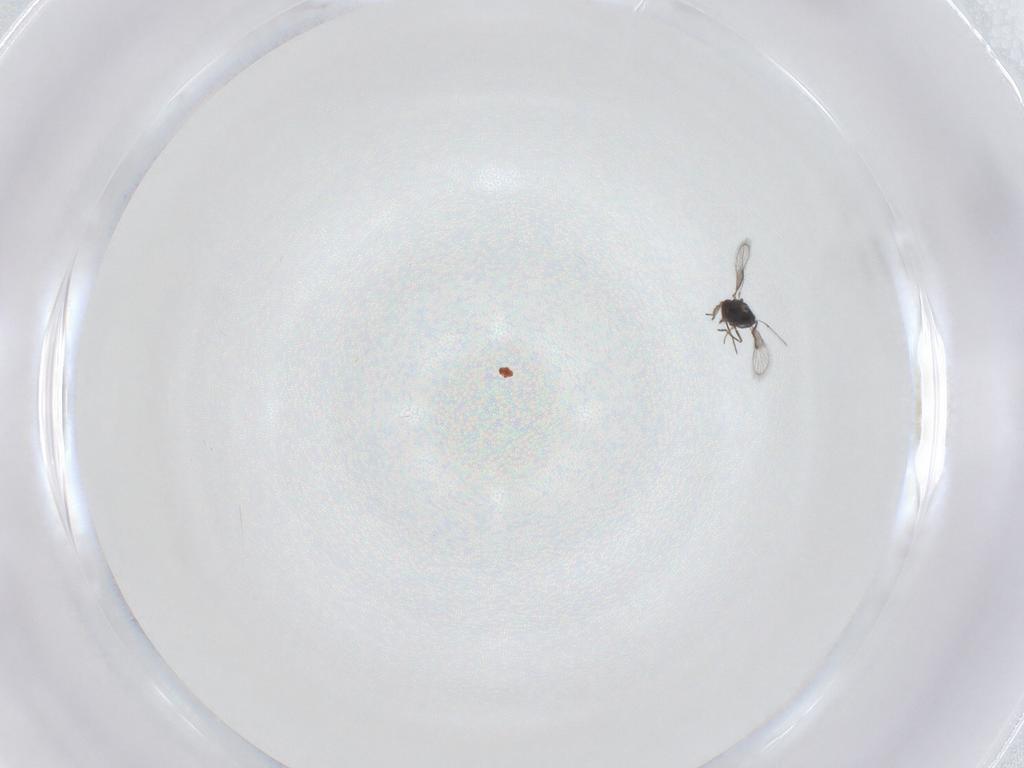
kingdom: Animalia
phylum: Arthropoda
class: Insecta
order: Hymenoptera
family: Trichogrammatidae
